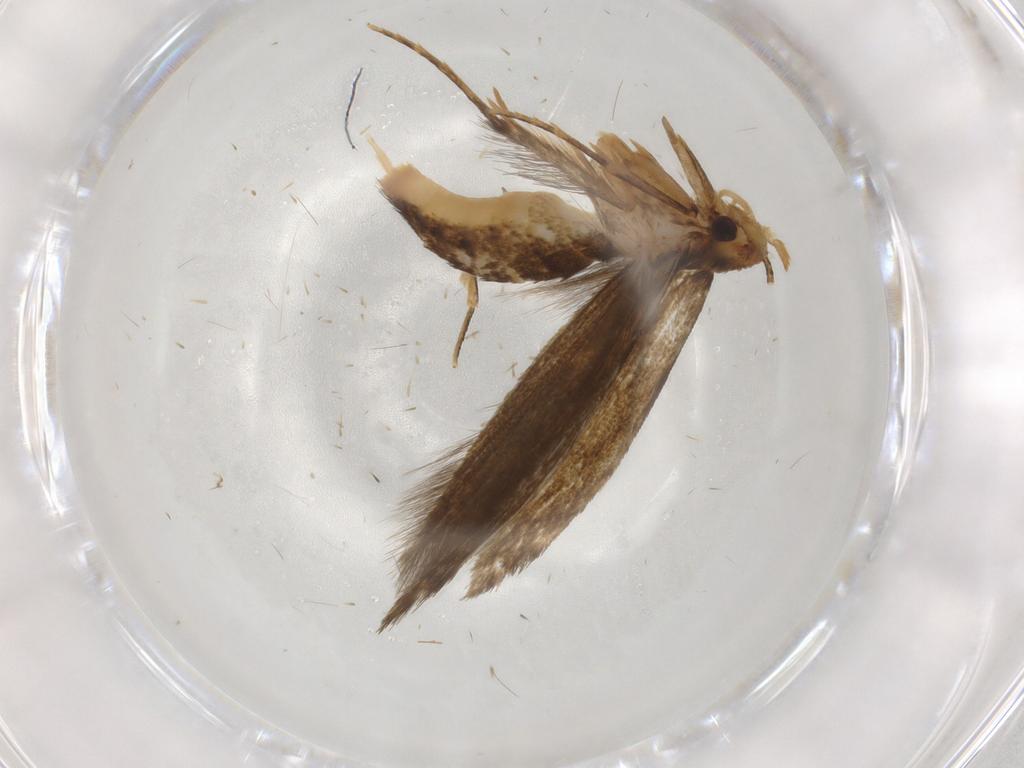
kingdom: Animalia
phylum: Arthropoda
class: Insecta
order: Lepidoptera
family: Tineidae
